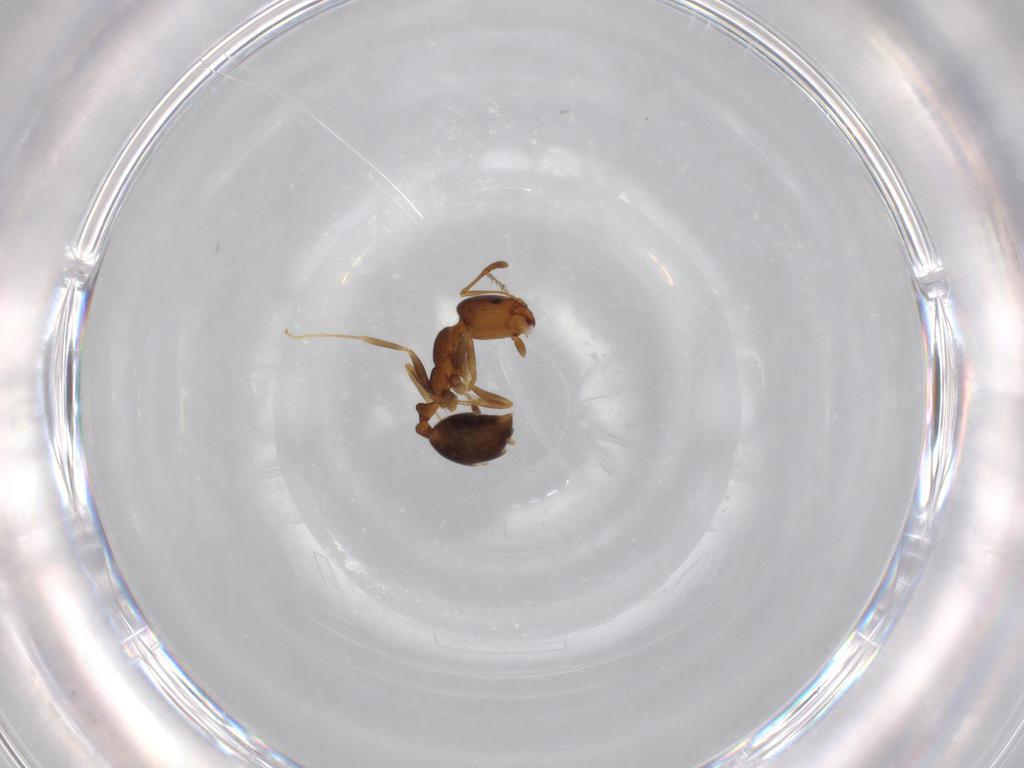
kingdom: Animalia
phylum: Arthropoda
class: Insecta
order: Hymenoptera
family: Formicidae
